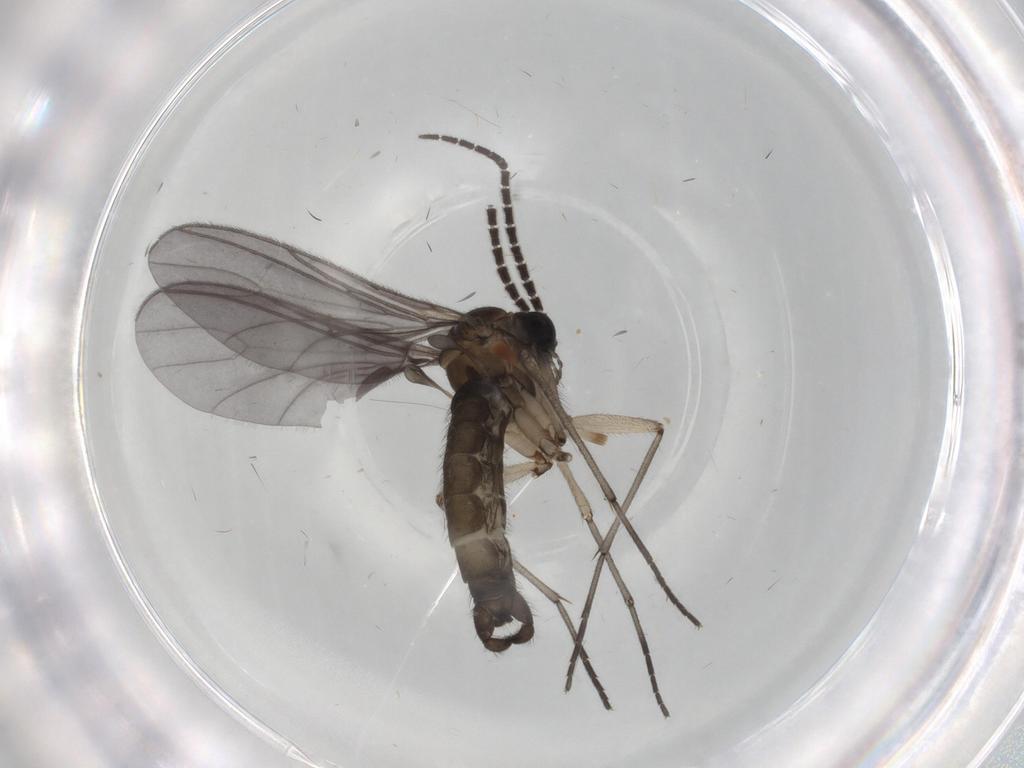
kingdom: Animalia
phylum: Arthropoda
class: Insecta
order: Diptera
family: Sciaridae
